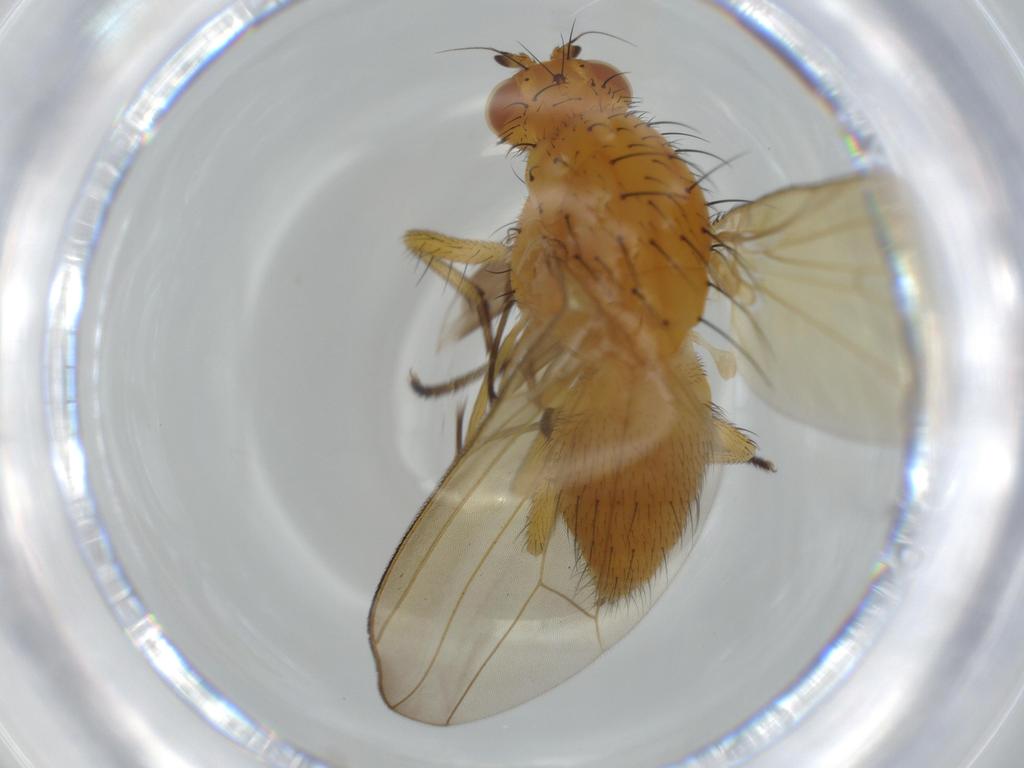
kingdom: Animalia
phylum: Arthropoda
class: Insecta
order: Diptera
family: Hybotidae
